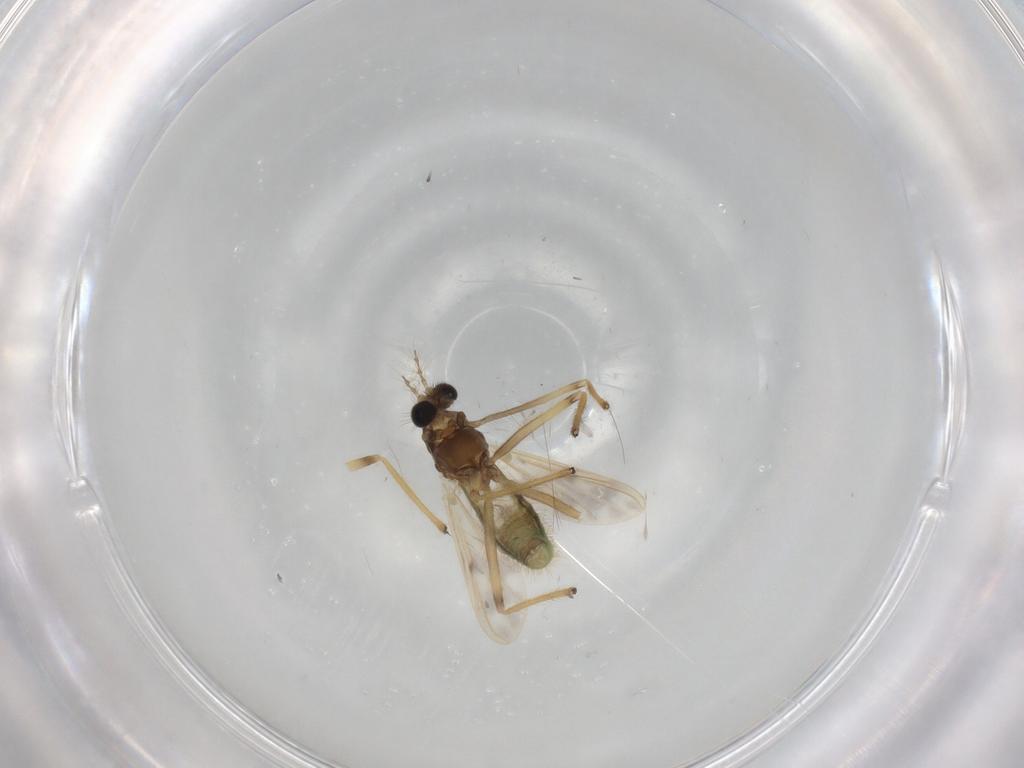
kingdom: Animalia
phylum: Arthropoda
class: Insecta
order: Diptera
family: Chironomidae
